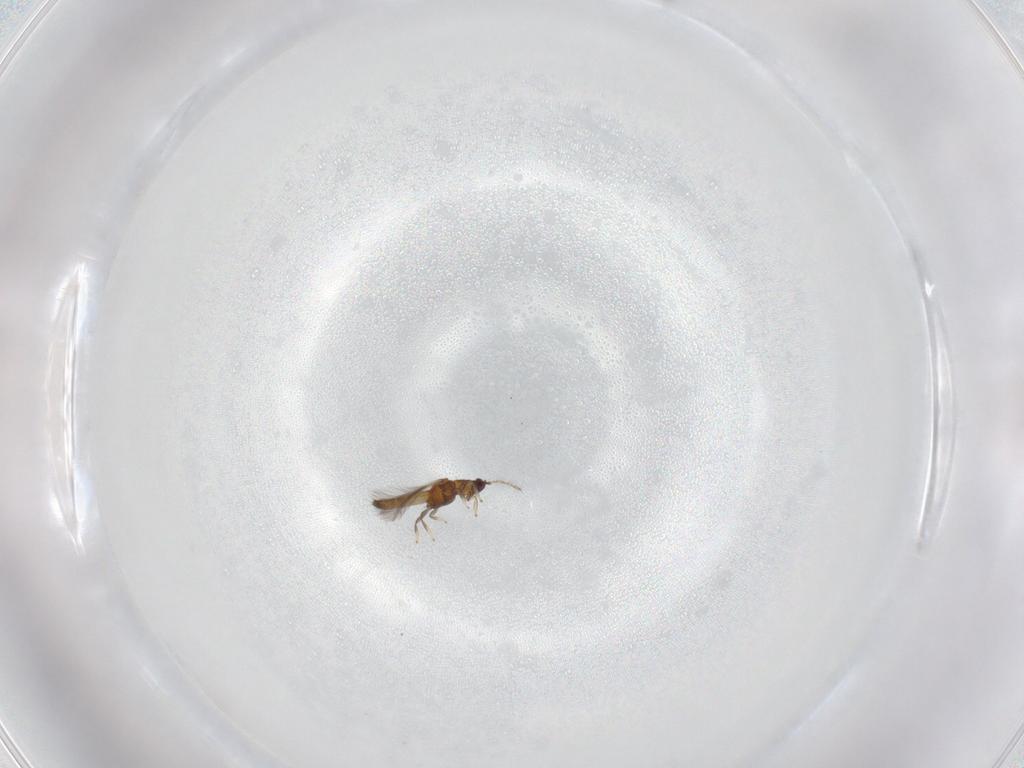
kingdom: Animalia
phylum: Arthropoda
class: Insecta
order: Thysanoptera
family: Thripidae
